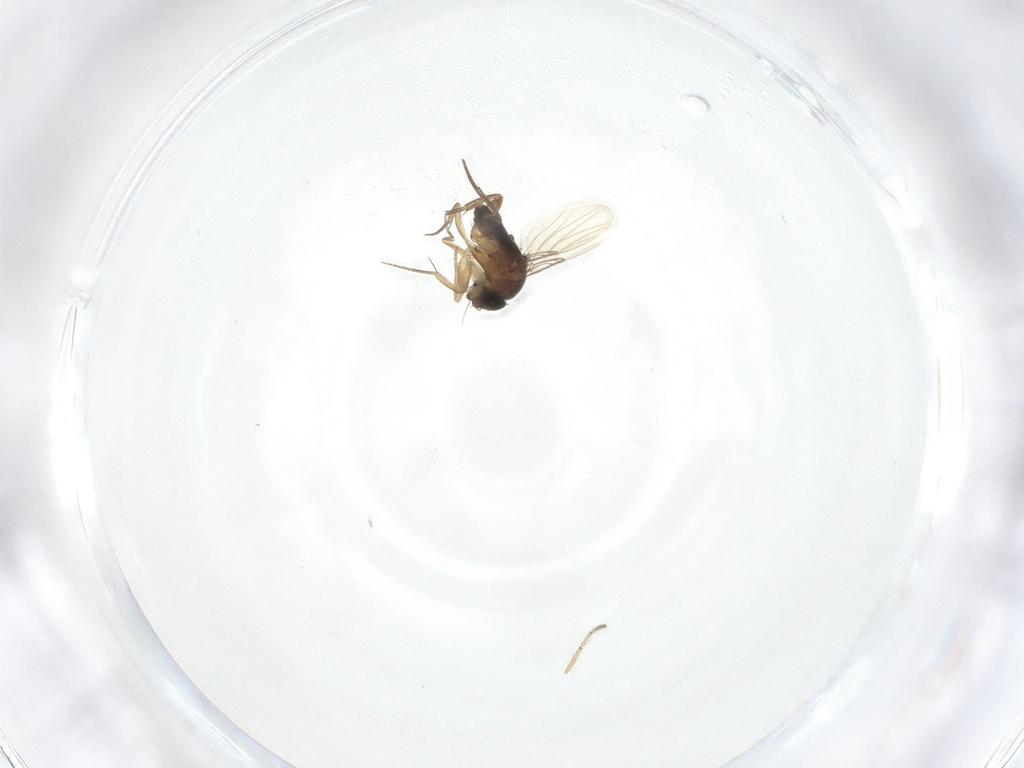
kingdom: Animalia
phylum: Arthropoda
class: Insecta
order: Diptera
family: Phoridae
